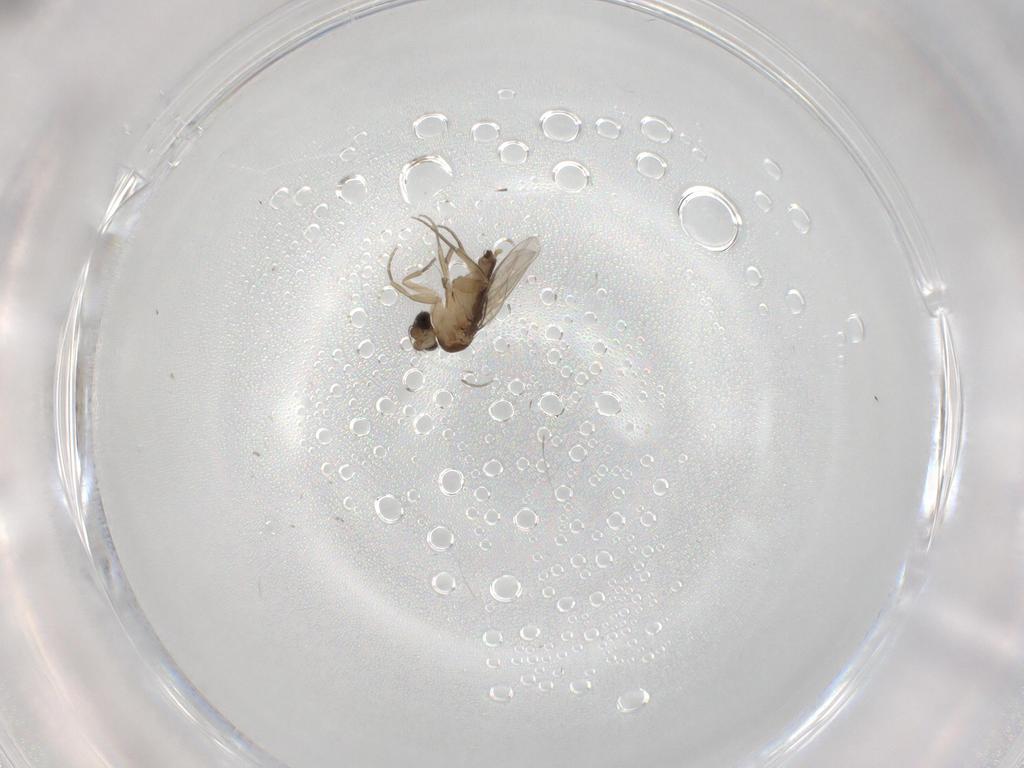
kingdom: Animalia
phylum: Arthropoda
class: Insecta
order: Diptera
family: Phoridae
